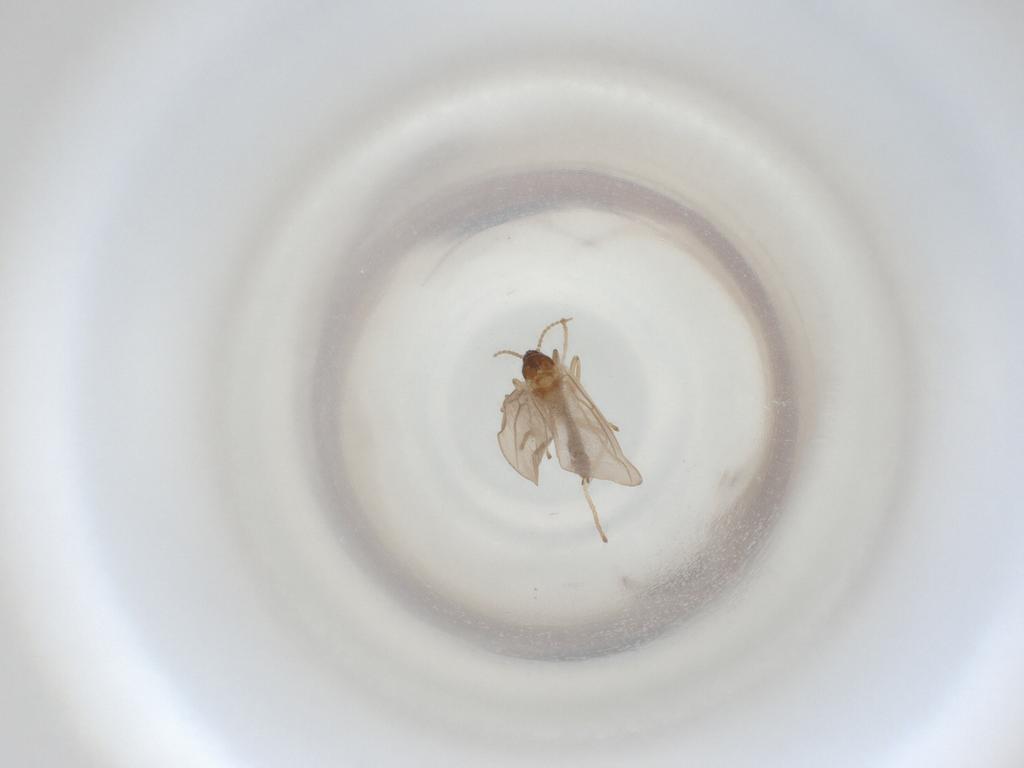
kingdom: Animalia
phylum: Arthropoda
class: Insecta
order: Diptera
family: Cecidomyiidae
